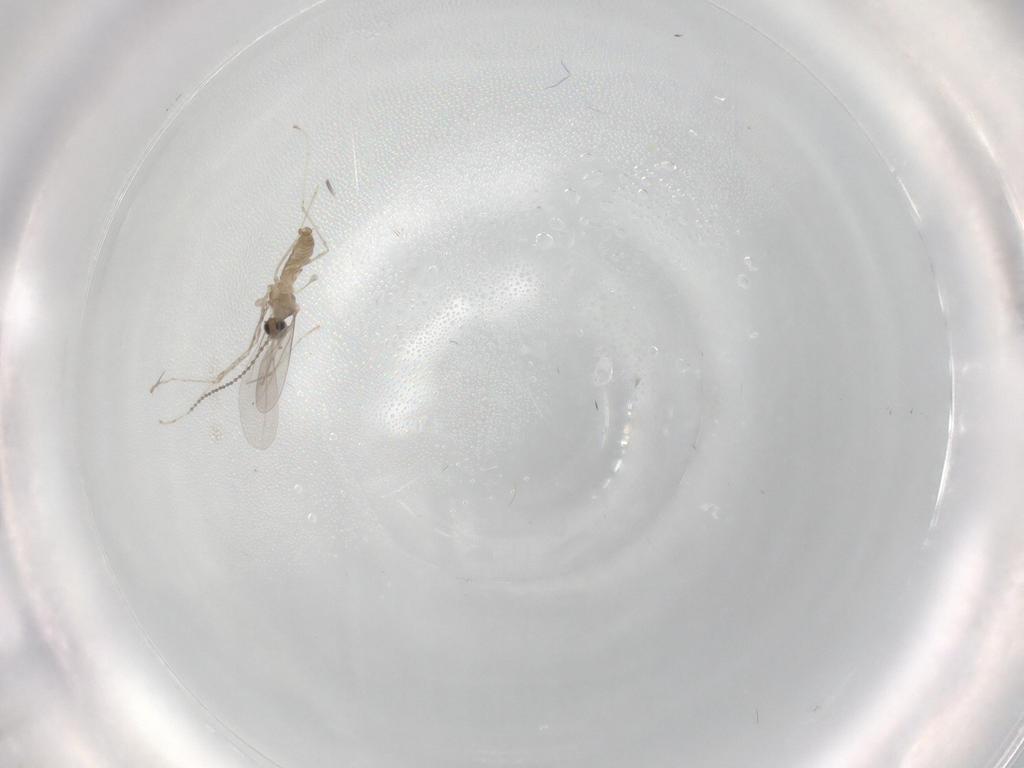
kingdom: Animalia
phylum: Arthropoda
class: Insecta
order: Diptera
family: Cecidomyiidae
